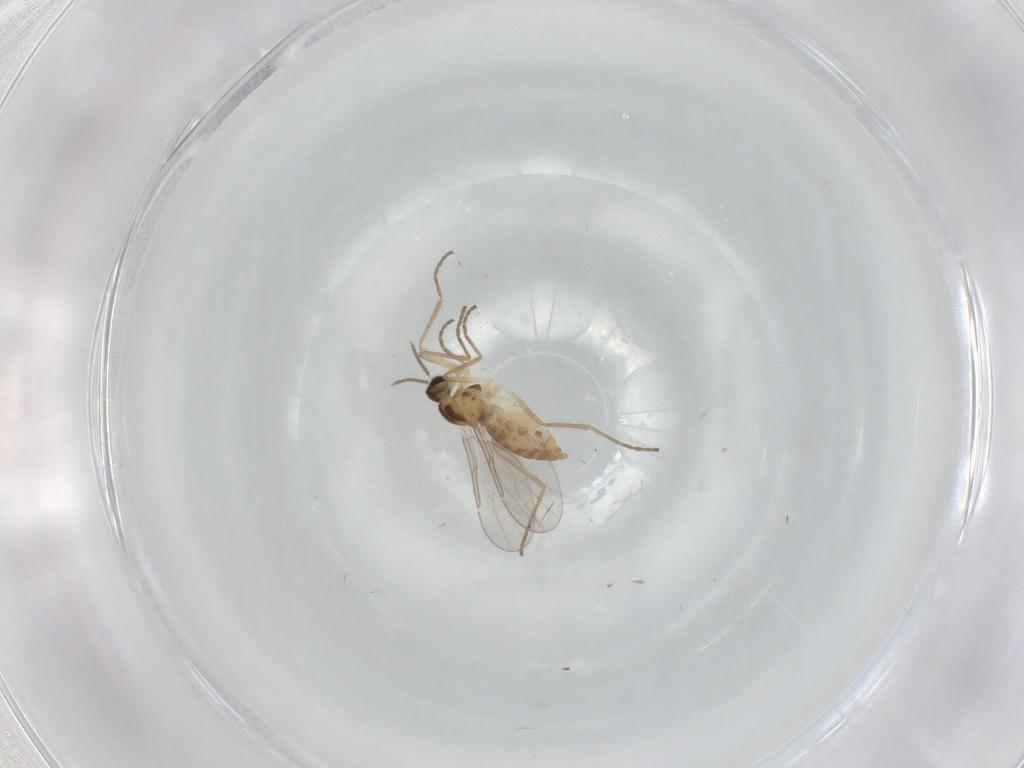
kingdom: Animalia
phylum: Arthropoda
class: Insecta
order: Diptera
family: Cecidomyiidae
